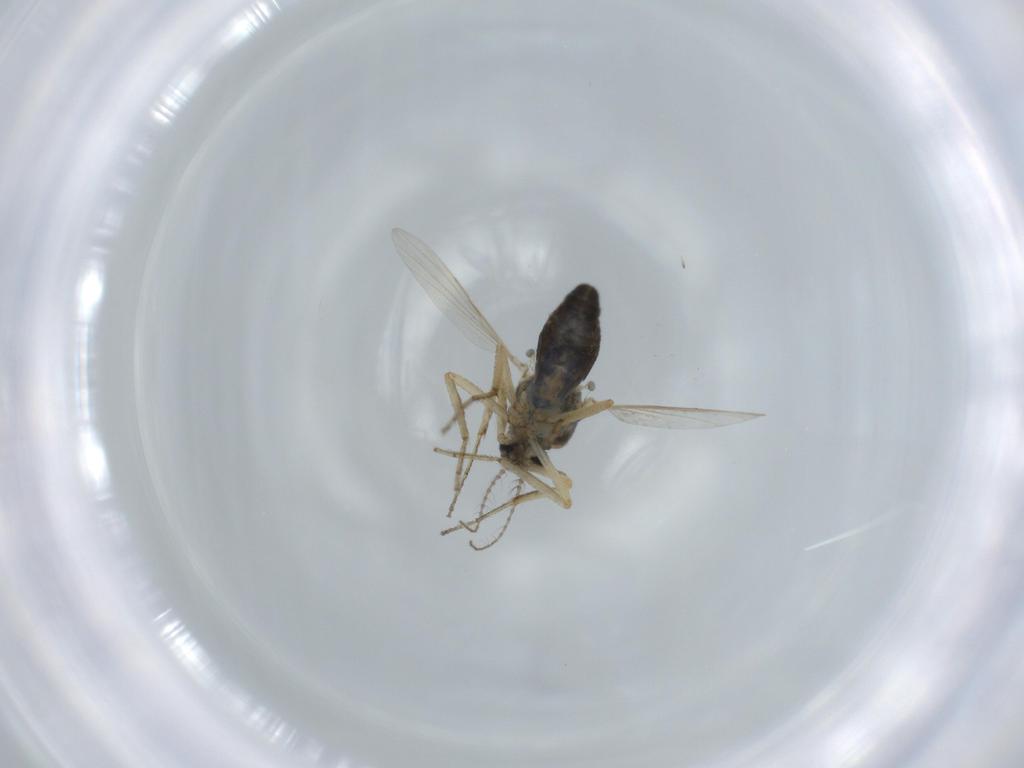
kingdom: Animalia
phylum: Arthropoda
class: Insecta
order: Diptera
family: Ceratopogonidae
